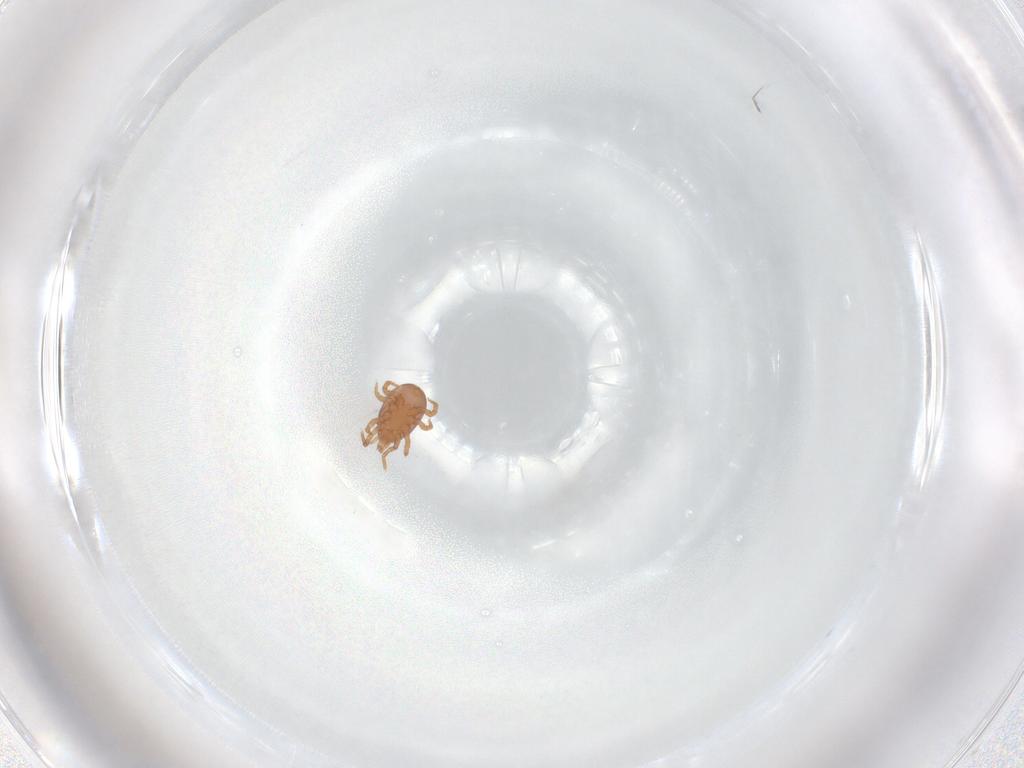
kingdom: Animalia
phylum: Arthropoda
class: Arachnida
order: Mesostigmata
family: Eviphididae
